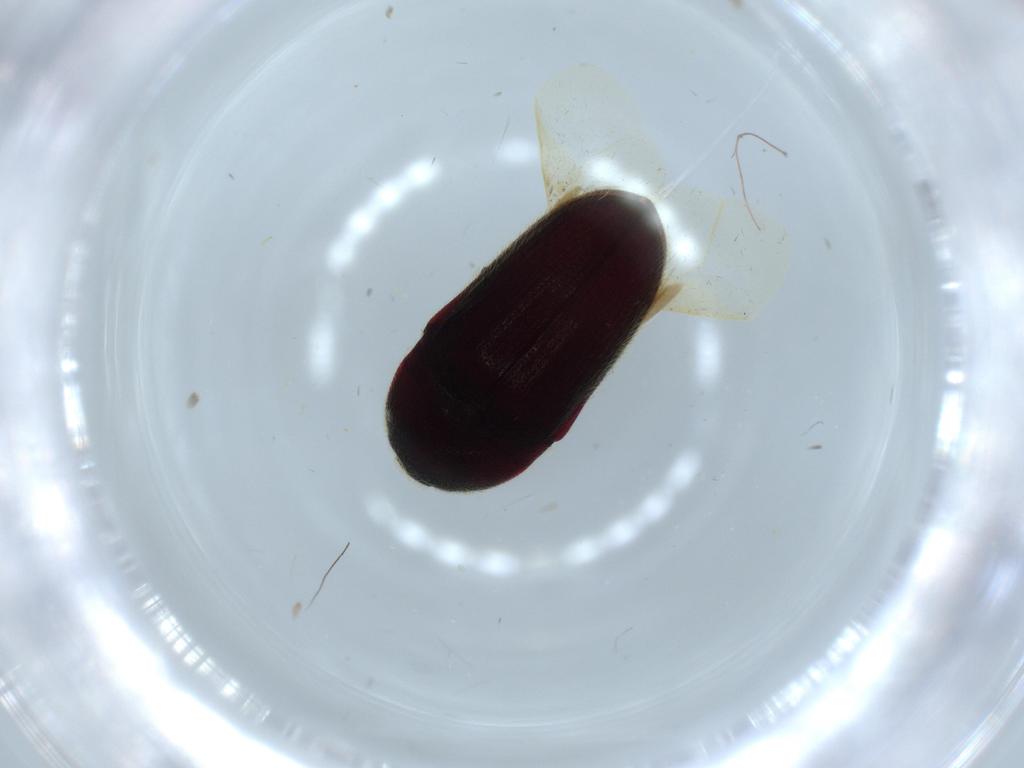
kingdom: Animalia
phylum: Arthropoda
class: Insecta
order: Coleoptera
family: Throscidae
